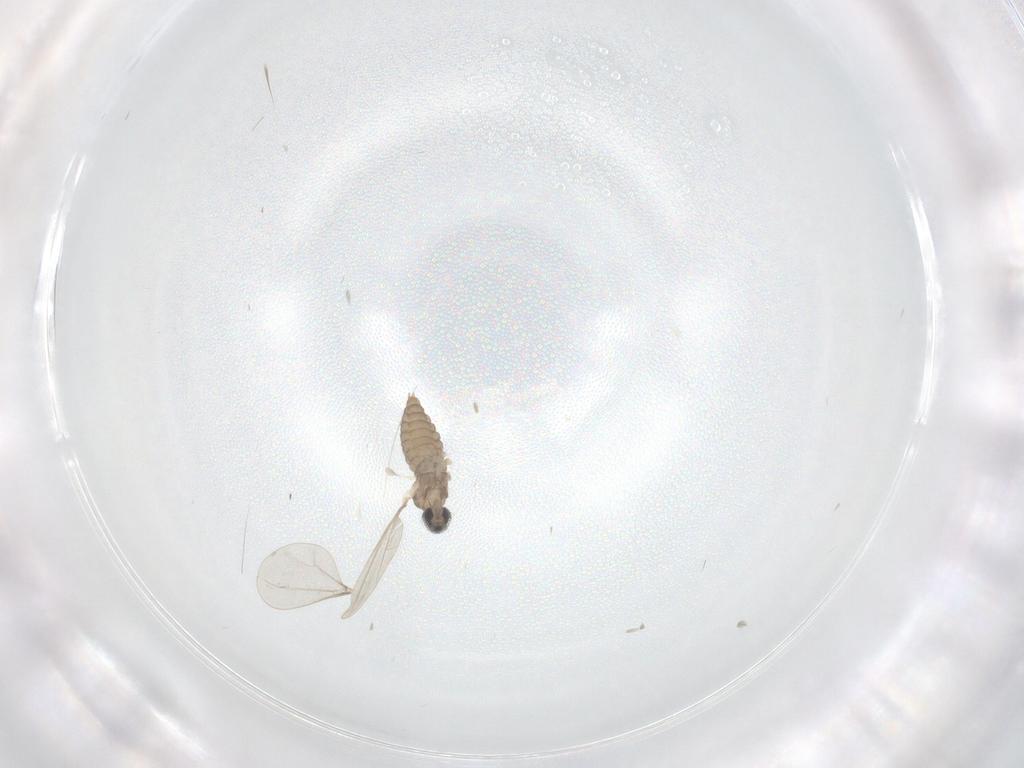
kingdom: Animalia
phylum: Arthropoda
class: Insecta
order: Diptera
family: Cecidomyiidae
